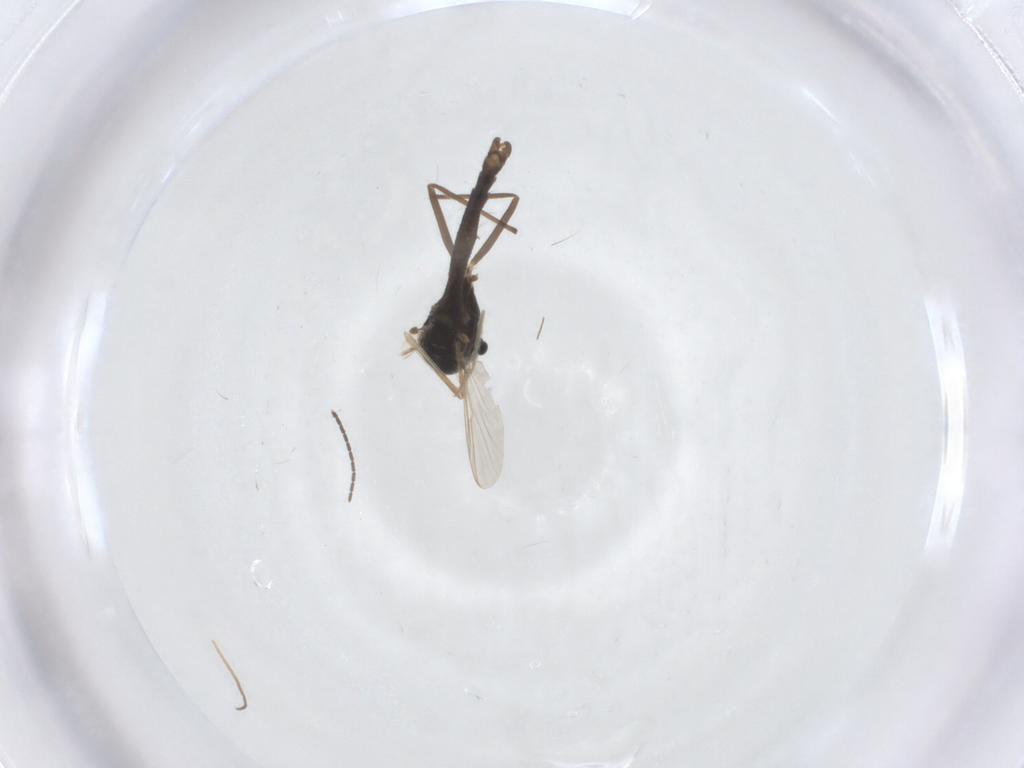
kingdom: Animalia
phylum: Arthropoda
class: Insecta
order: Diptera
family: Chironomidae
